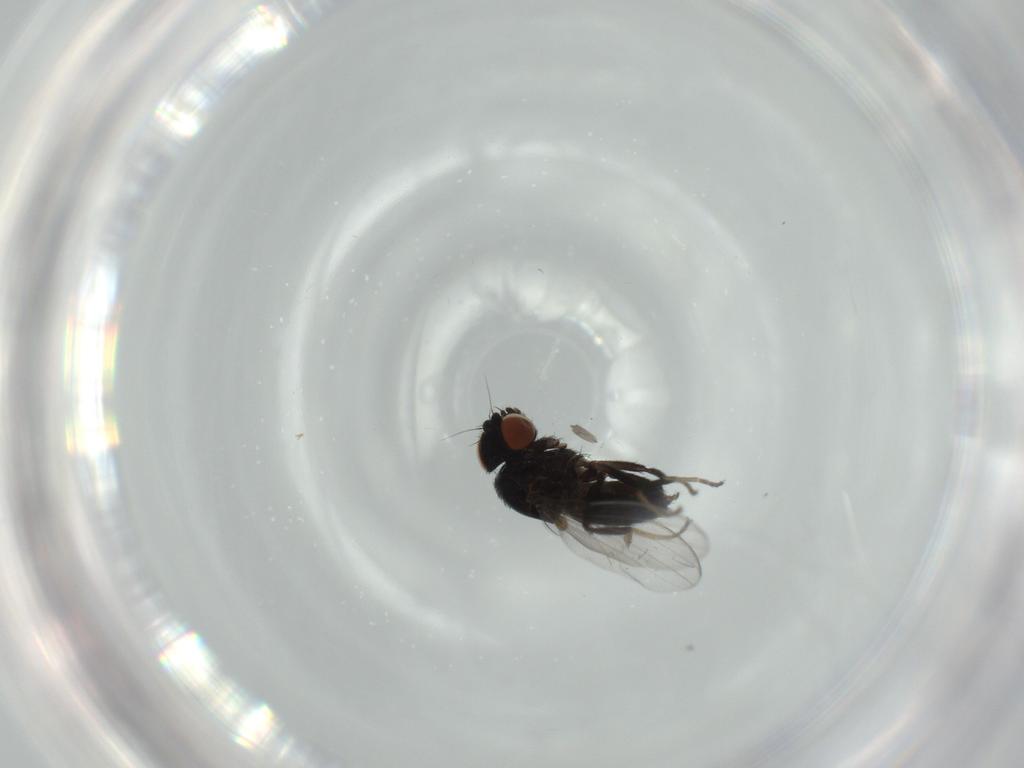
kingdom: Animalia
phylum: Arthropoda
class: Insecta
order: Diptera
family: Milichiidae
